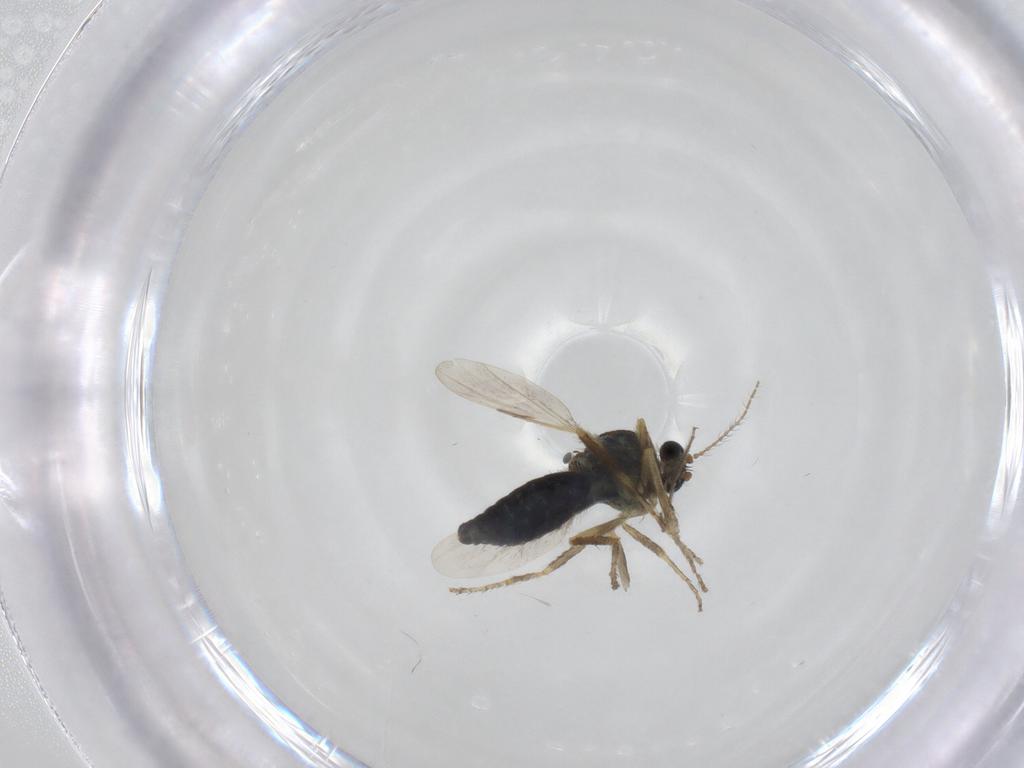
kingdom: Animalia
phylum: Arthropoda
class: Insecta
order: Diptera
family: Ceratopogonidae
